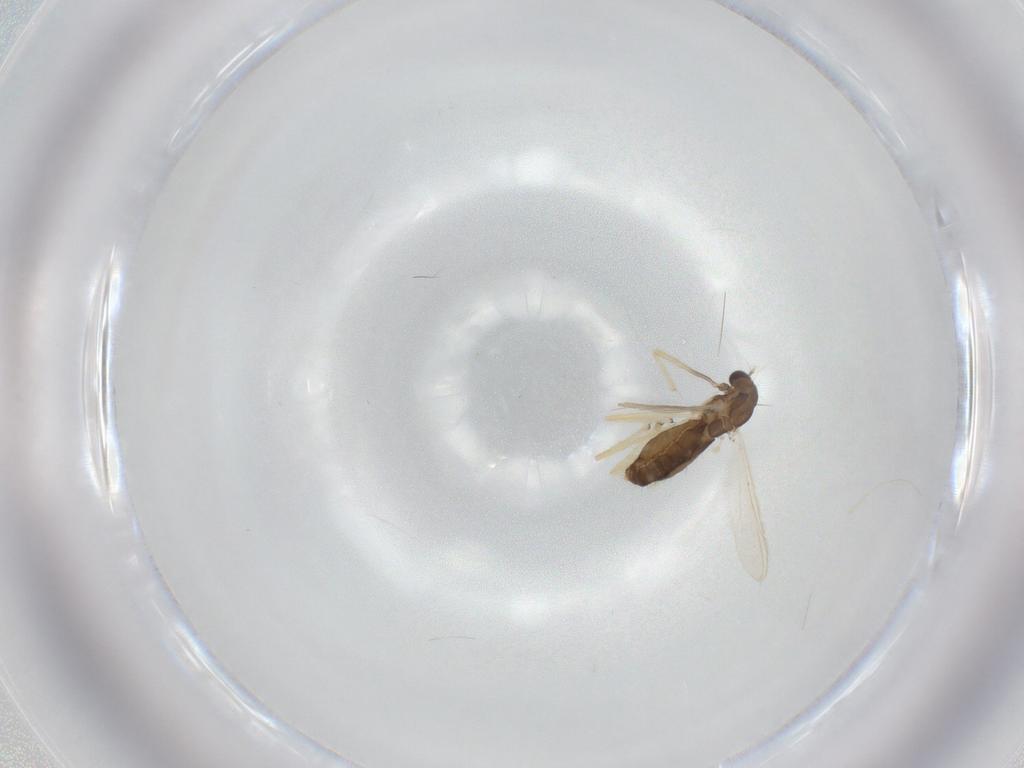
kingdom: Animalia
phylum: Arthropoda
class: Insecta
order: Diptera
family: Chironomidae
